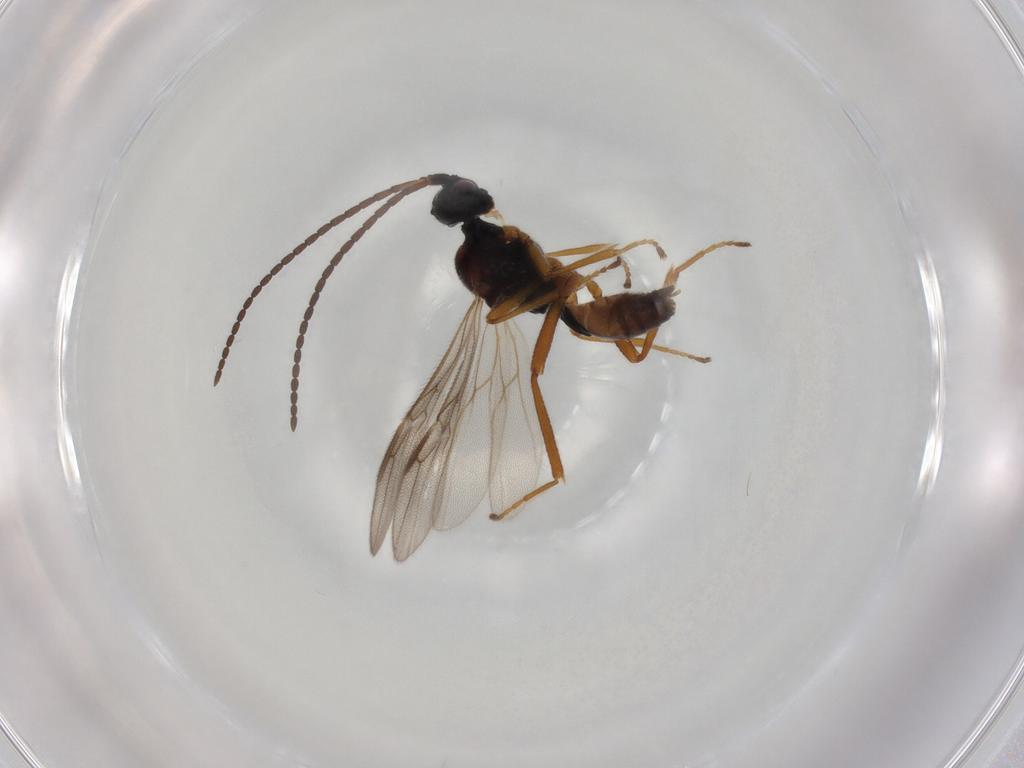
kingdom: Animalia
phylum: Arthropoda
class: Insecta
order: Hymenoptera
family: Braconidae
